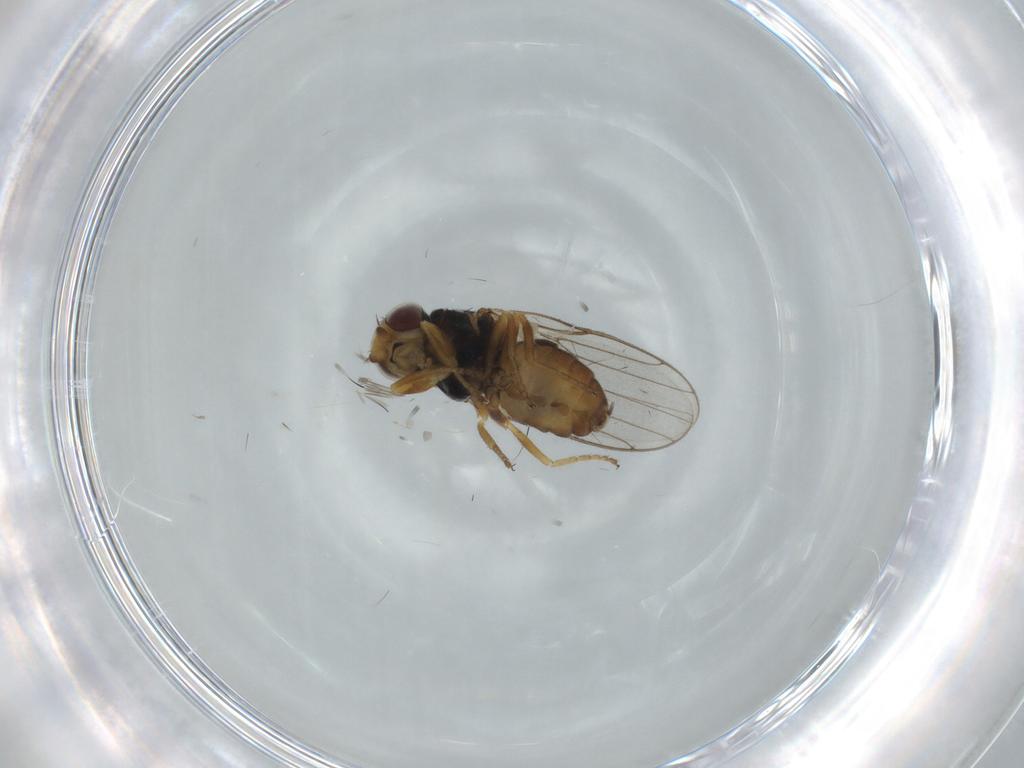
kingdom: Animalia
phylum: Arthropoda
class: Insecta
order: Diptera
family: Chloropidae
